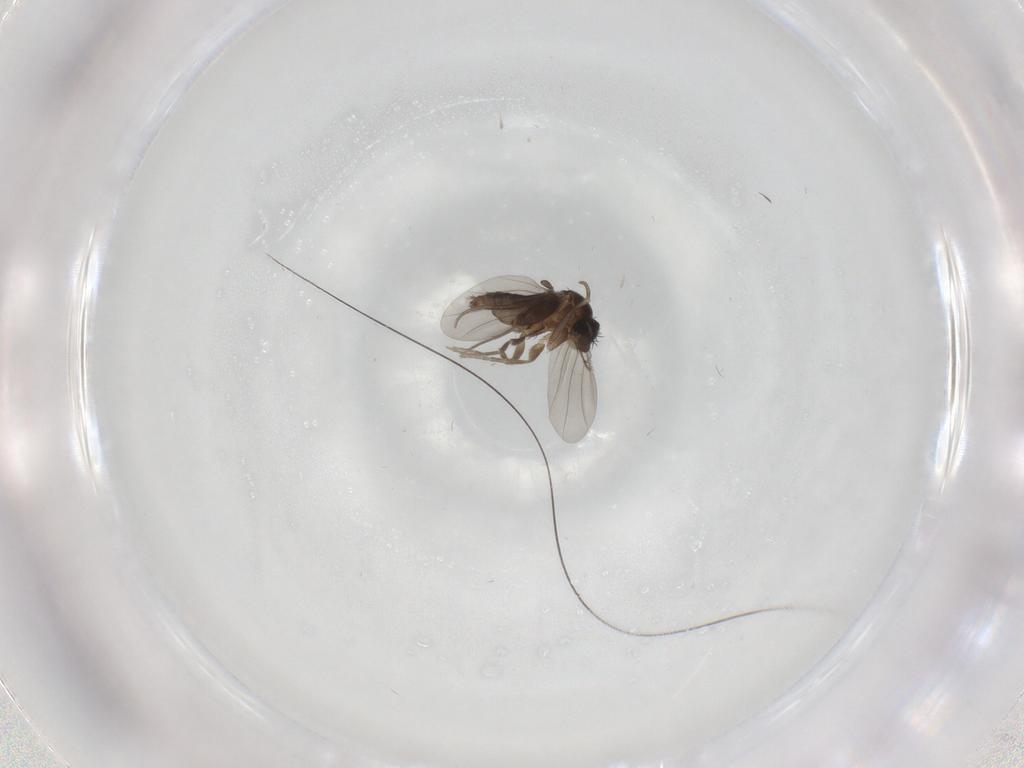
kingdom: Animalia
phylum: Arthropoda
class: Insecta
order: Diptera
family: Phoridae
